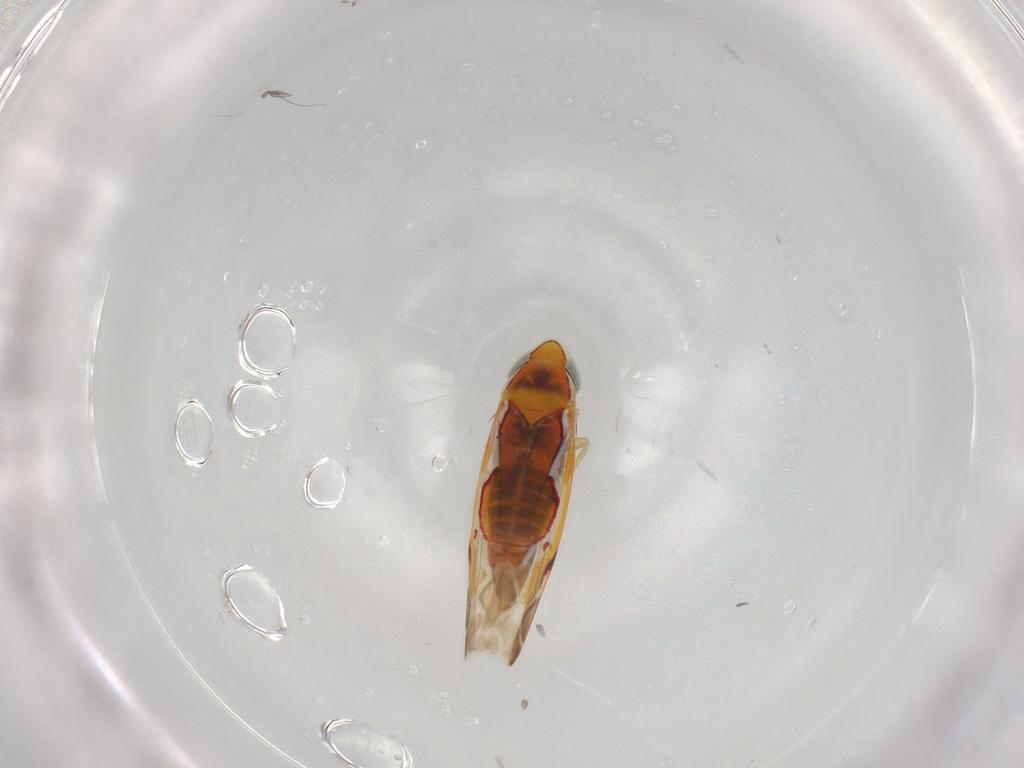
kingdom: Animalia
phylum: Arthropoda
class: Insecta
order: Hemiptera
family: Cicadellidae
